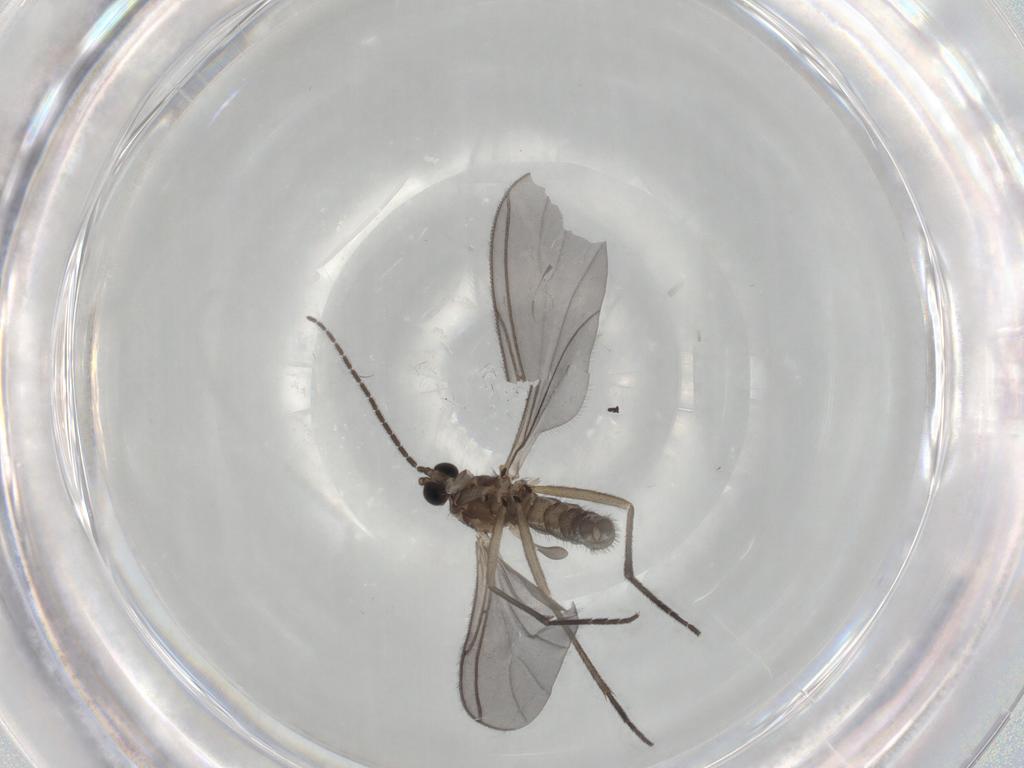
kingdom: Animalia
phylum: Arthropoda
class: Insecta
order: Diptera
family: Sciaridae
